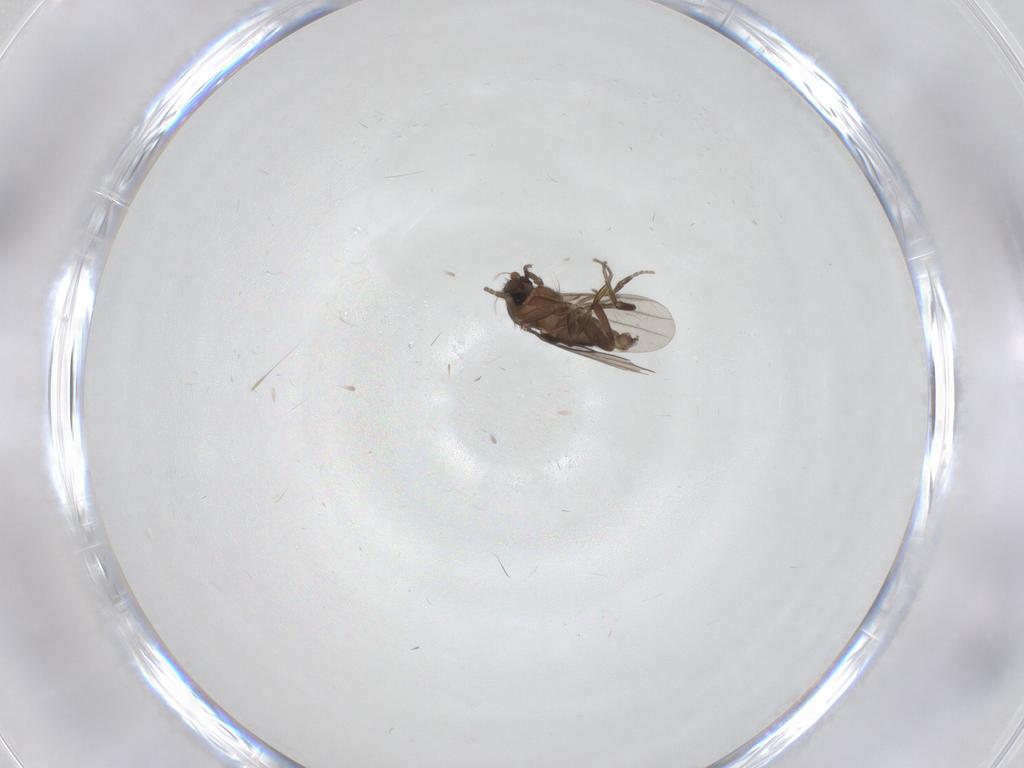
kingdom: Animalia
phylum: Arthropoda
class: Insecta
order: Diptera
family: Phoridae
